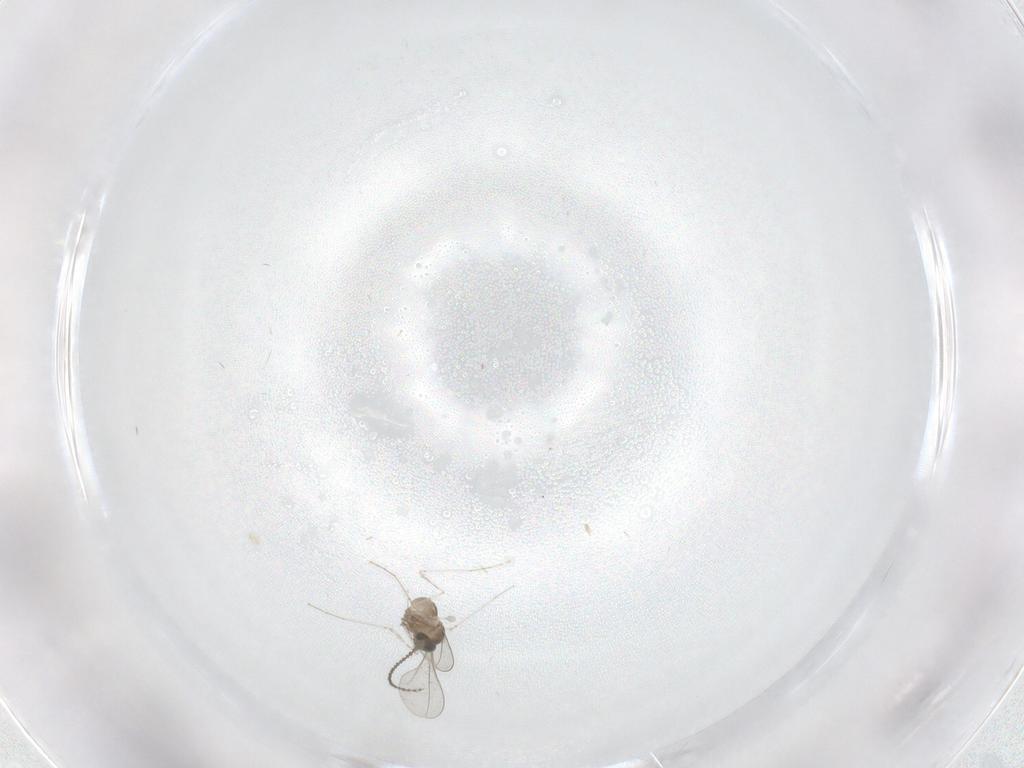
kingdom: Animalia
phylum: Arthropoda
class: Insecta
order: Diptera
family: Cecidomyiidae
